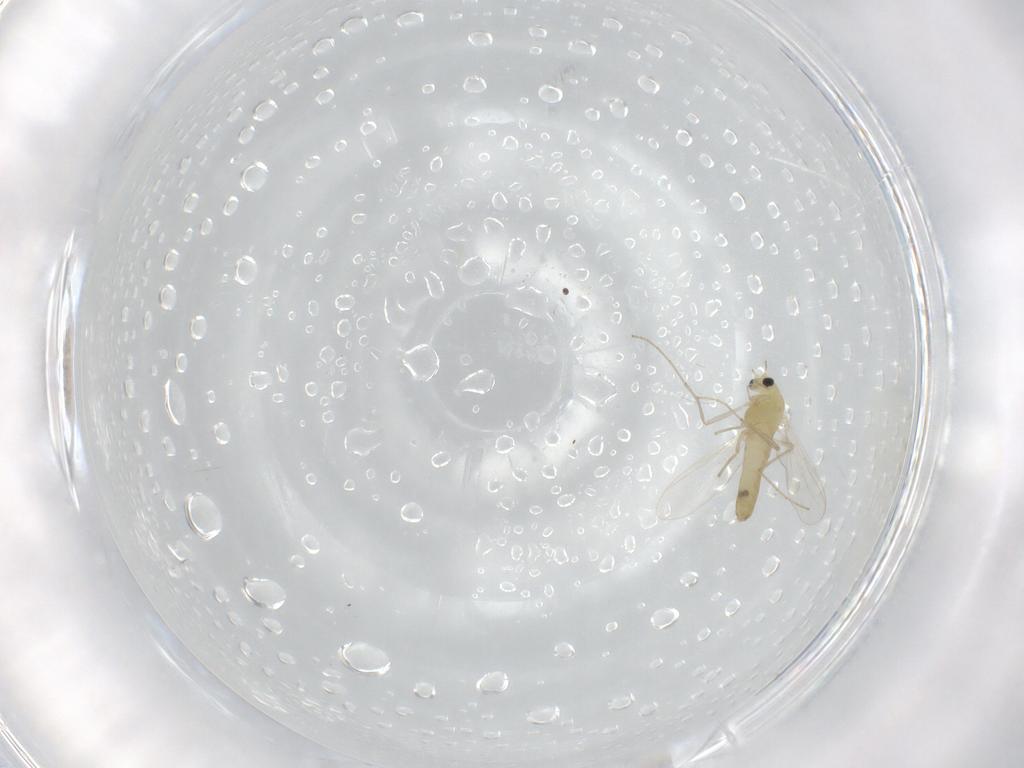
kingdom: Animalia
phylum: Arthropoda
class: Insecta
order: Diptera
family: Chironomidae
